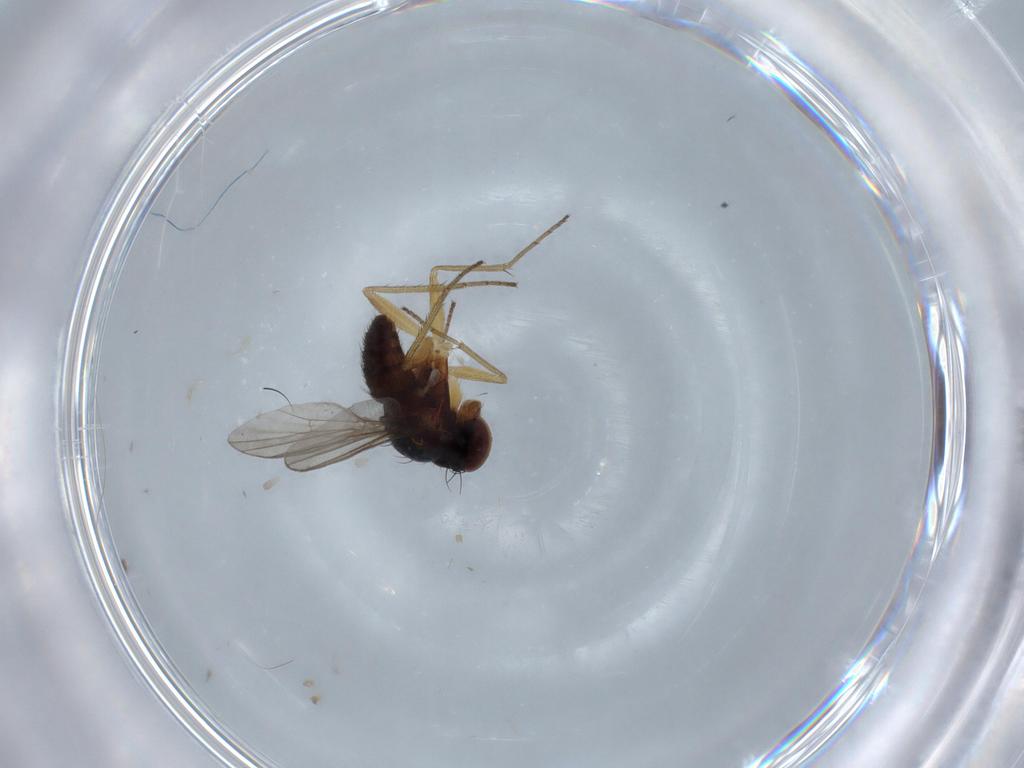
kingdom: Animalia
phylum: Arthropoda
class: Insecta
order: Diptera
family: Dolichopodidae
